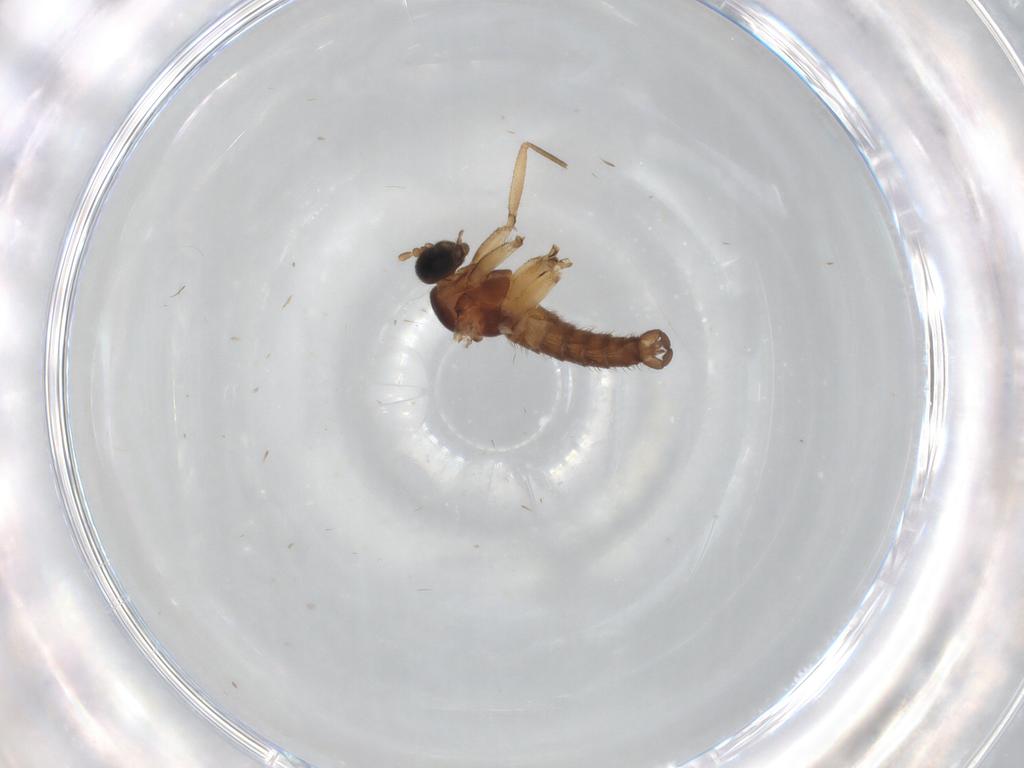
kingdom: Animalia
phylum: Arthropoda
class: Insecta
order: Diptera
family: Sciaridae
